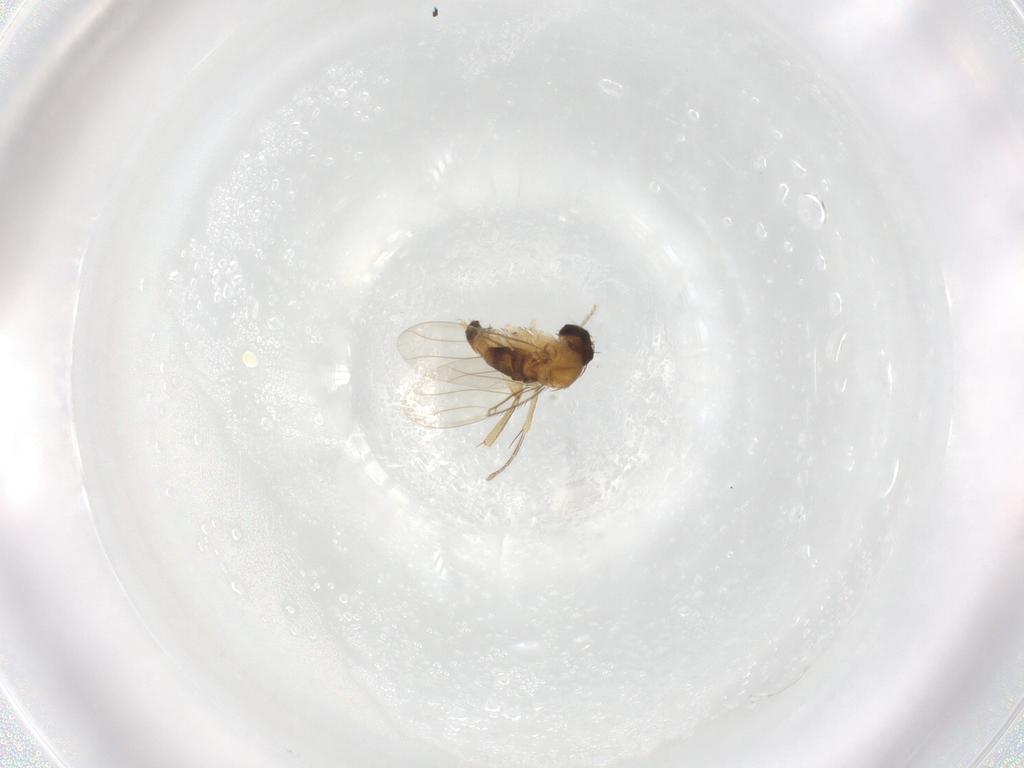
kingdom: Animalia
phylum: Arthropoda
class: Insecta
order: Diptera
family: Phoridae
